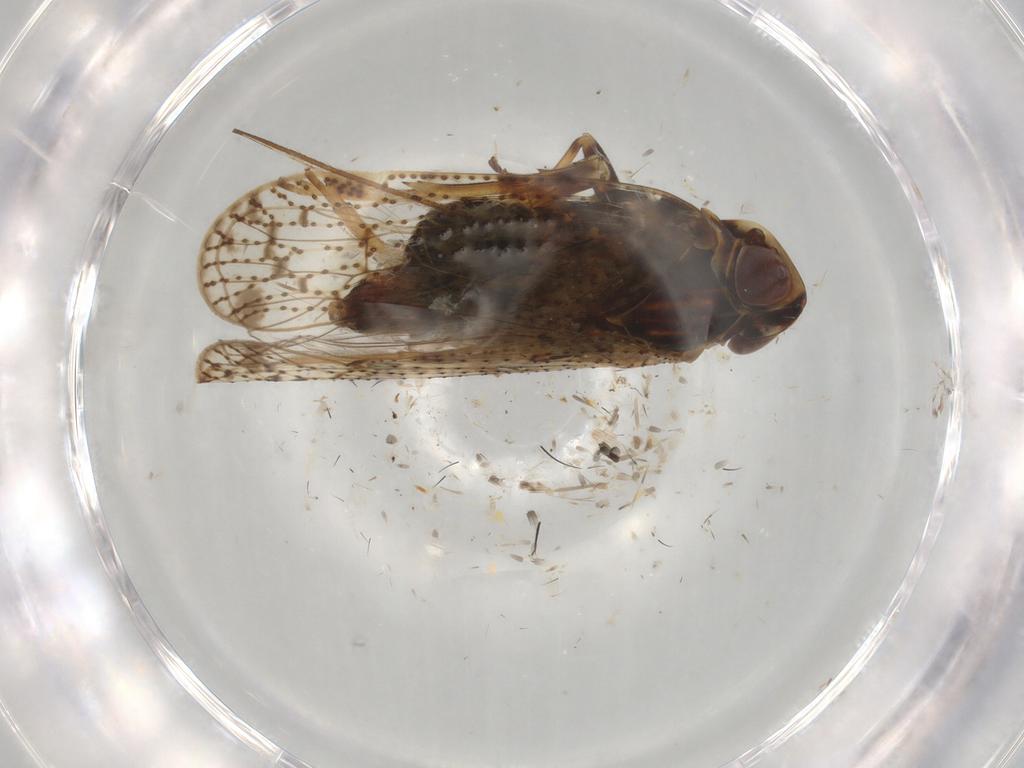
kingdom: Animalia
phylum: Arthropoda
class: Insecta
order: Hemiptera
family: Cixiidae
